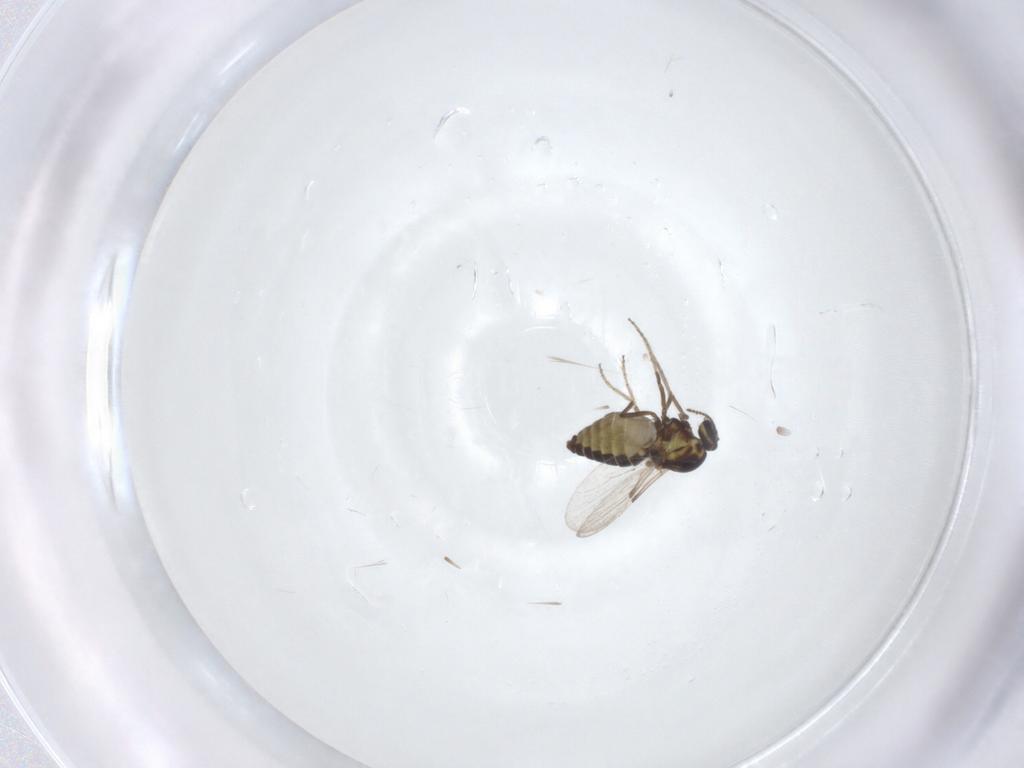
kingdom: Animalia
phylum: Arthropoda
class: Insecta
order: Diptera
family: Ceratopogonidae
